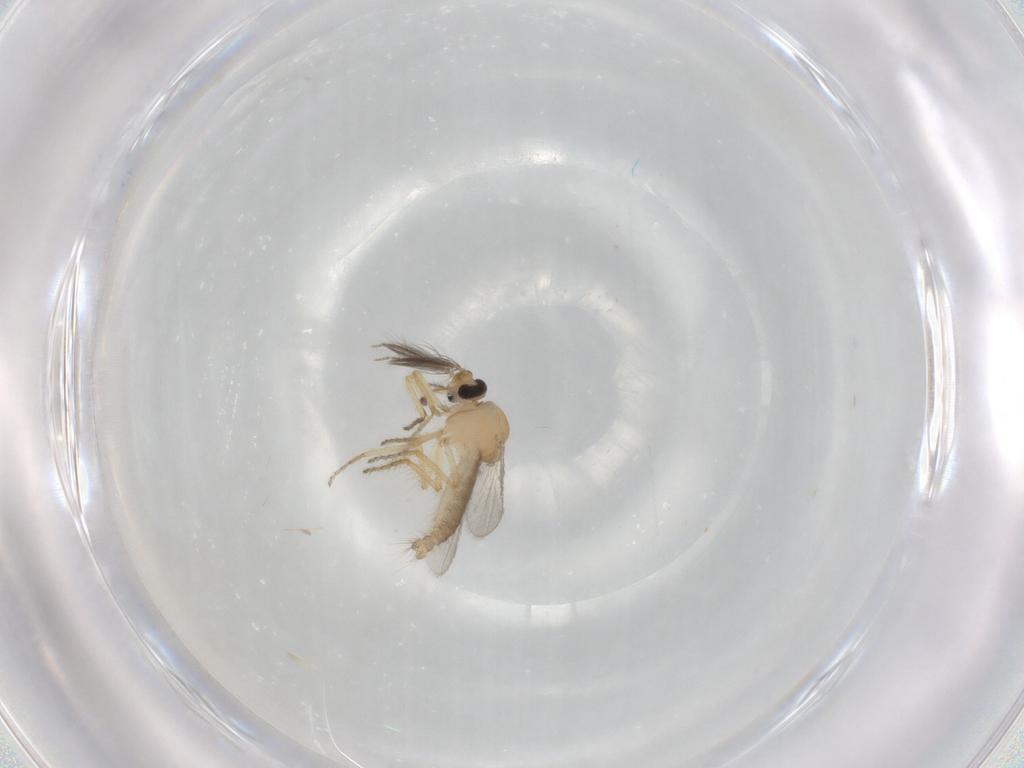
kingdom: Animalia
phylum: Arthropoda
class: Insecta
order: Diptera
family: Ceratopogonidae
